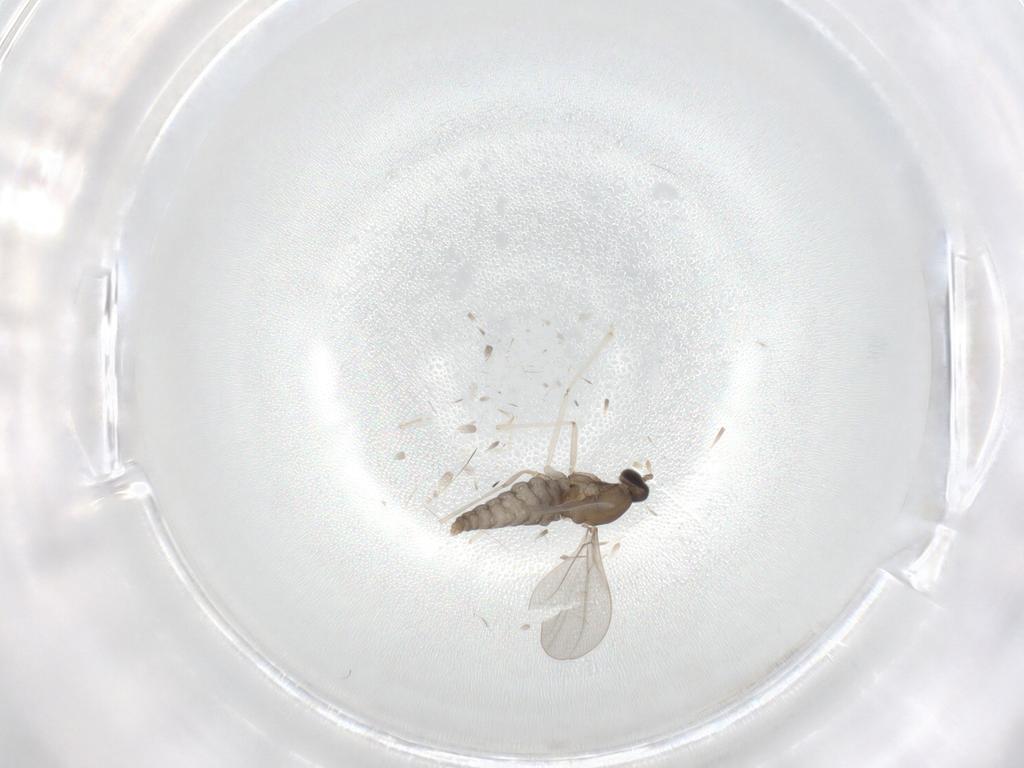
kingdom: Animalia
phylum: Arthropoda
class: Insecta
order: Diptera
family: Cecidomyiidae
